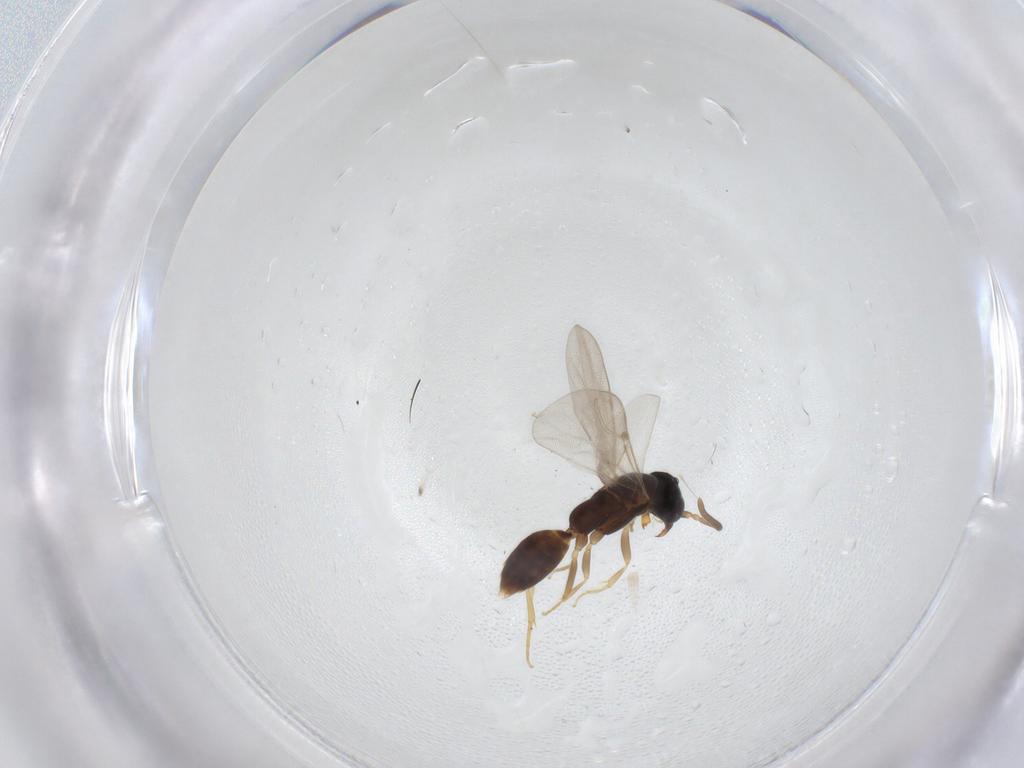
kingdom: Animalia
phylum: Arthropoda
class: Insecta
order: Hymenoptera
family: Bethylidae
